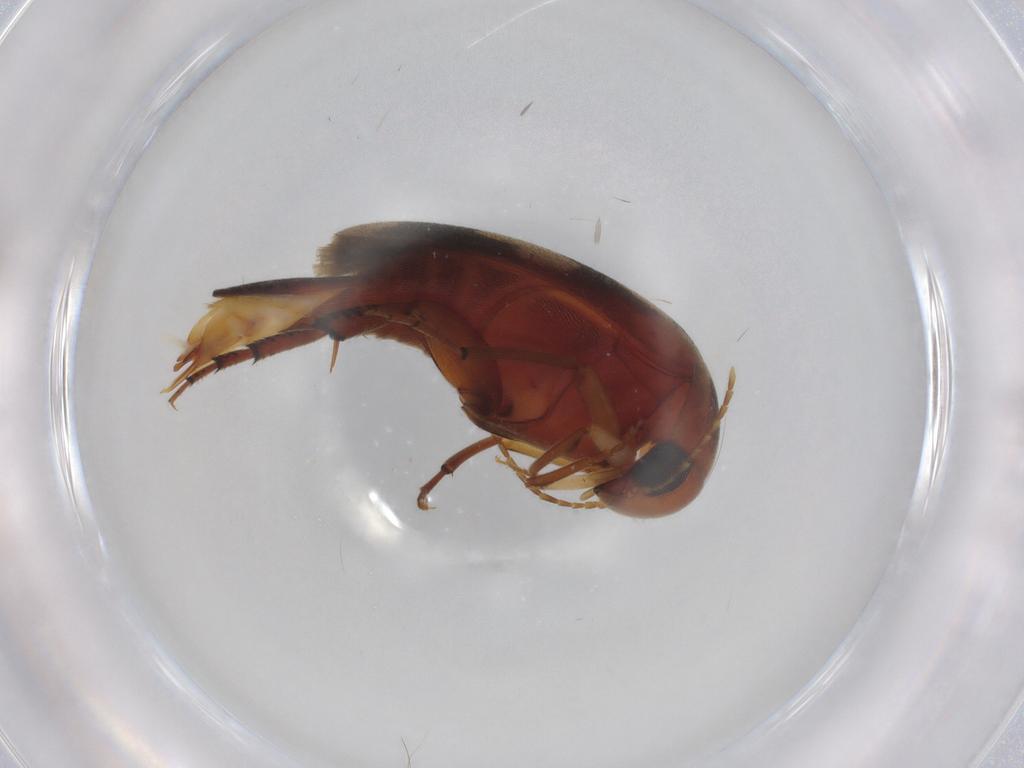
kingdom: Animalia
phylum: Arthropoda
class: Insecta
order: Coleoptera
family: Mordellidae
